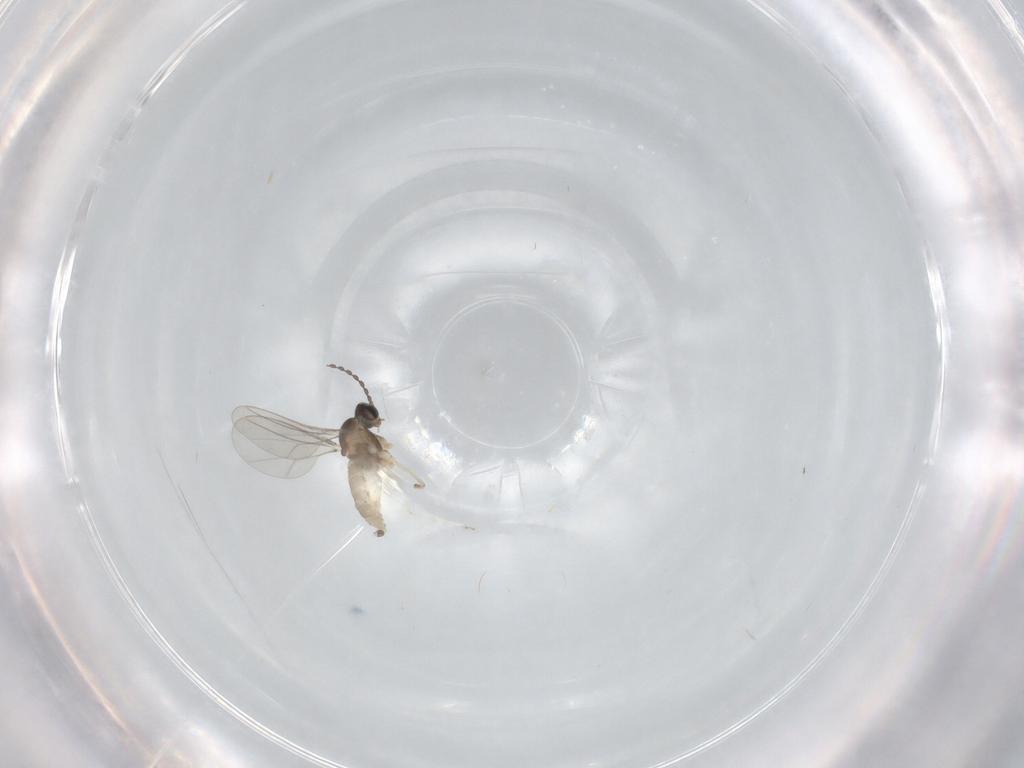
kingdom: Animalia
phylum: Arthropoda
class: Insecta
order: Diptera
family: Cecidomyiidae
